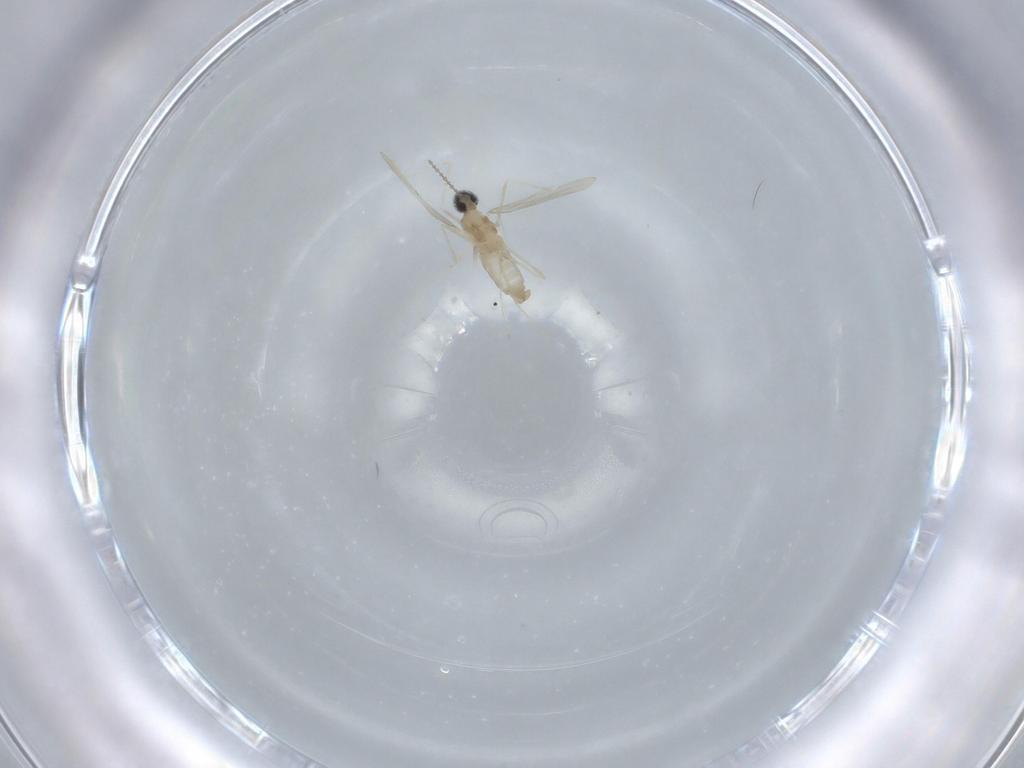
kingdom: Animalia
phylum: Arthropoda
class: Insecta
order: Diptera
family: Cecidomyiidae
